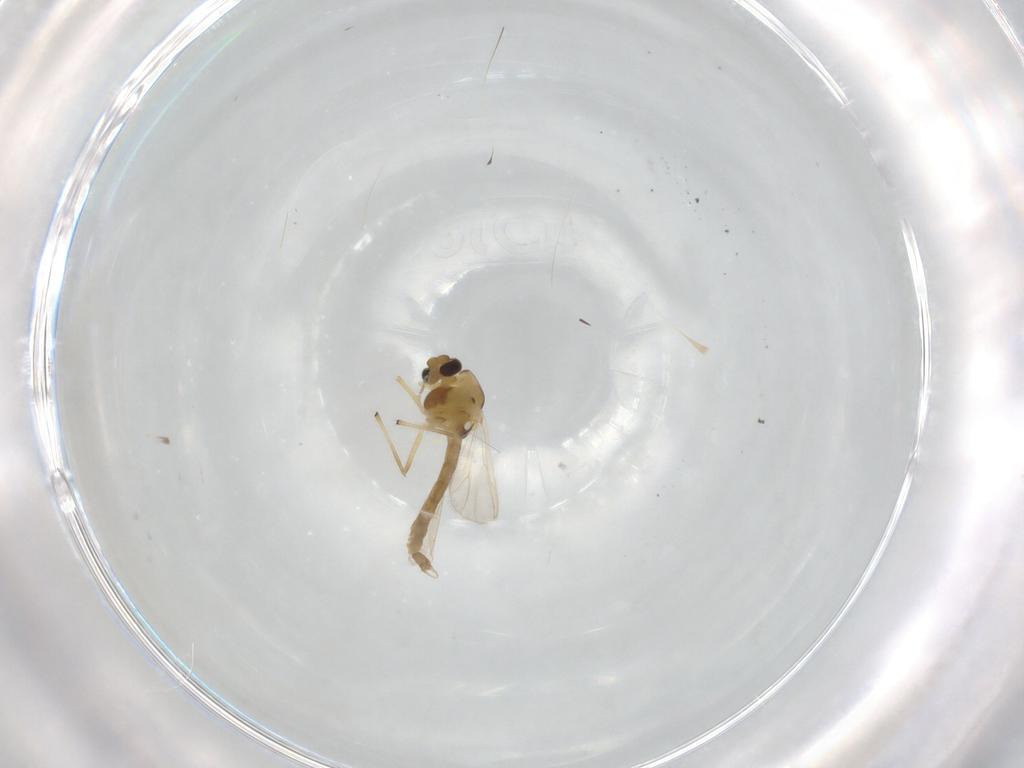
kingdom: Animalia
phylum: Arthropoda
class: Insecta
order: Diptera
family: Chironomidae
